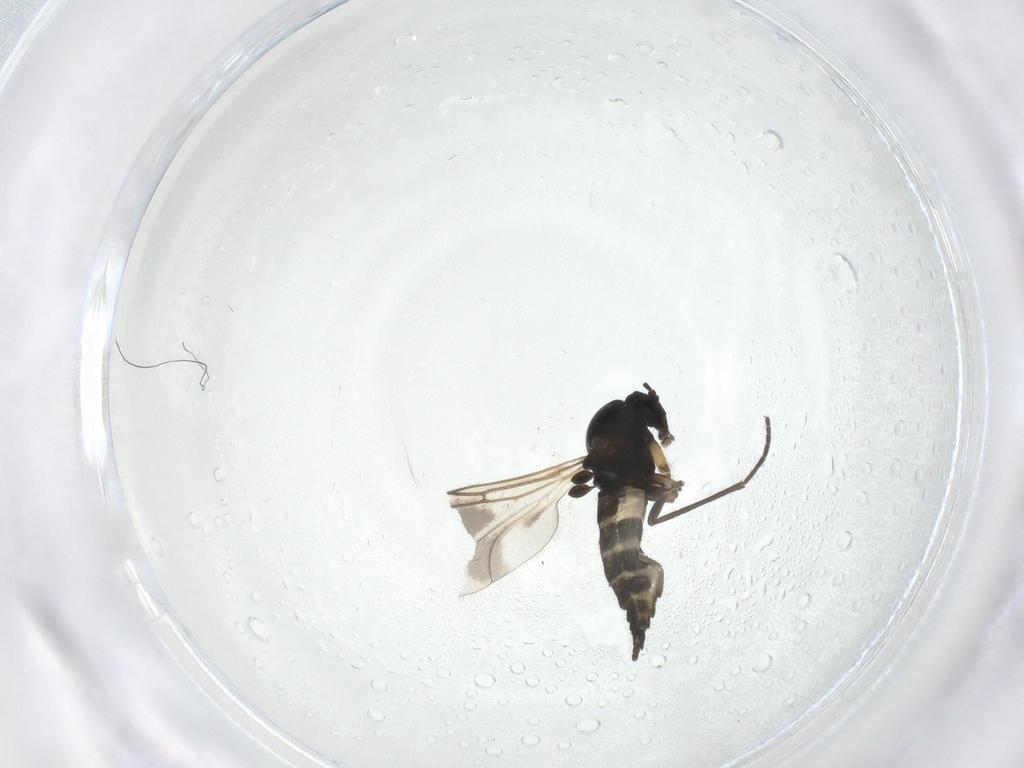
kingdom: Animalia
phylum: Arthropoda
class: Insecta
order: Diptera
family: Sciaridae
